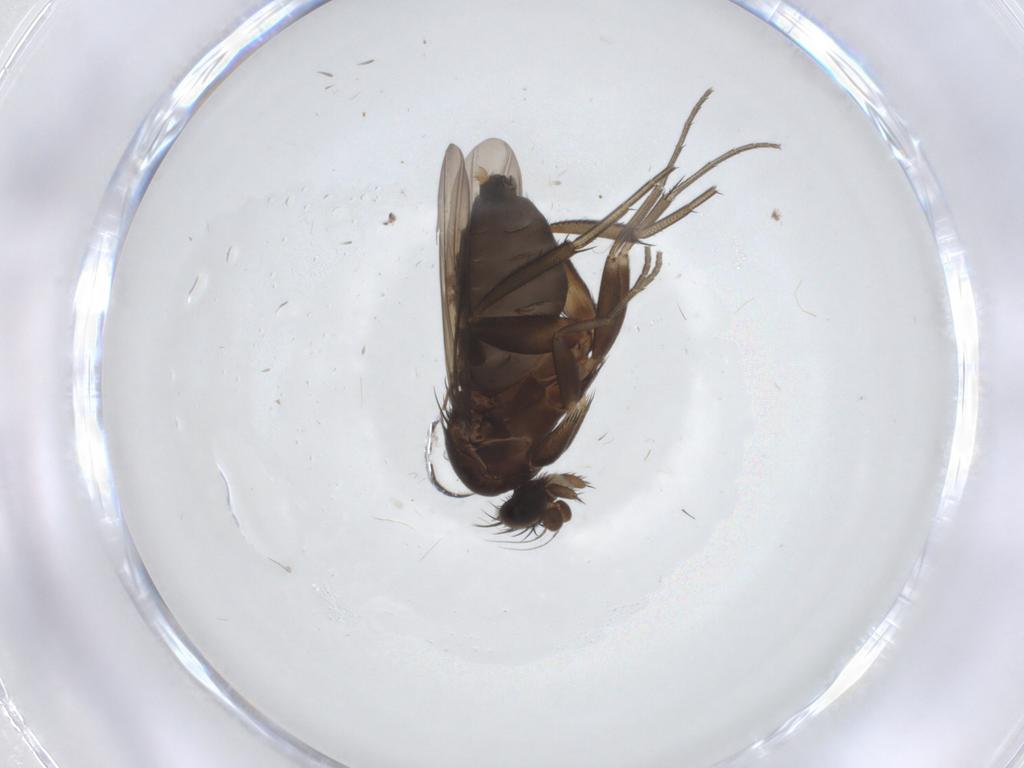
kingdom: Animalia
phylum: Arthropoda
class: Insecta
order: Diptera
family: Phoridae
